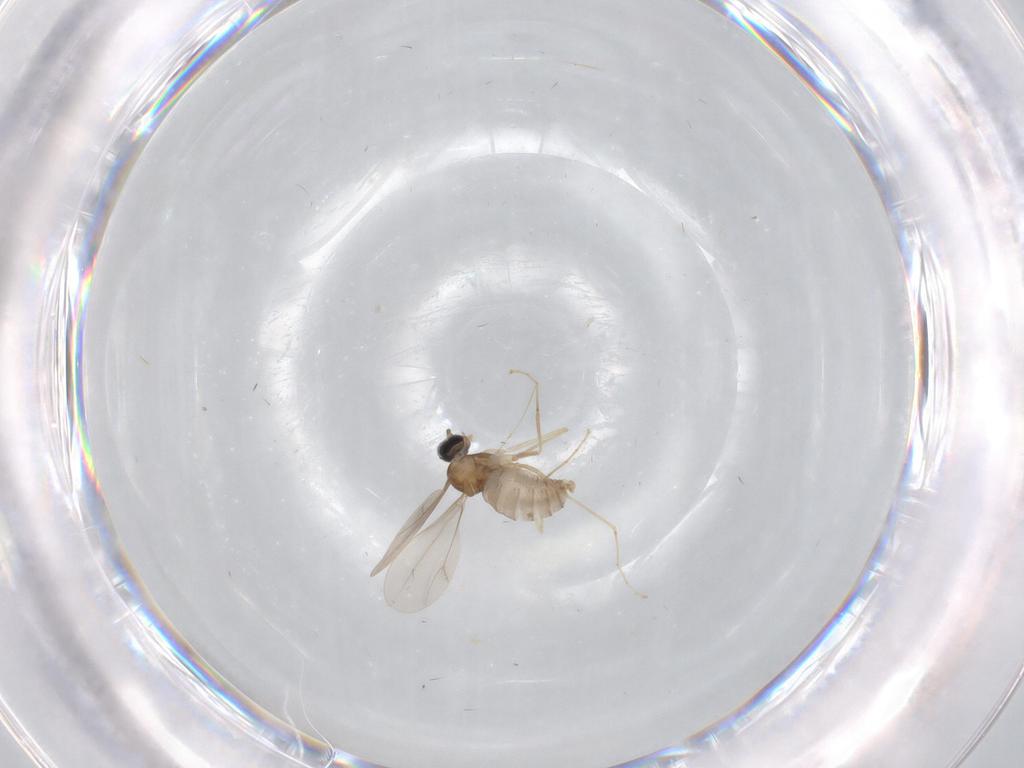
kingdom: Animalia
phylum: Arthropoda
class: Insecta
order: Diptera
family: Cecidomyiidae
